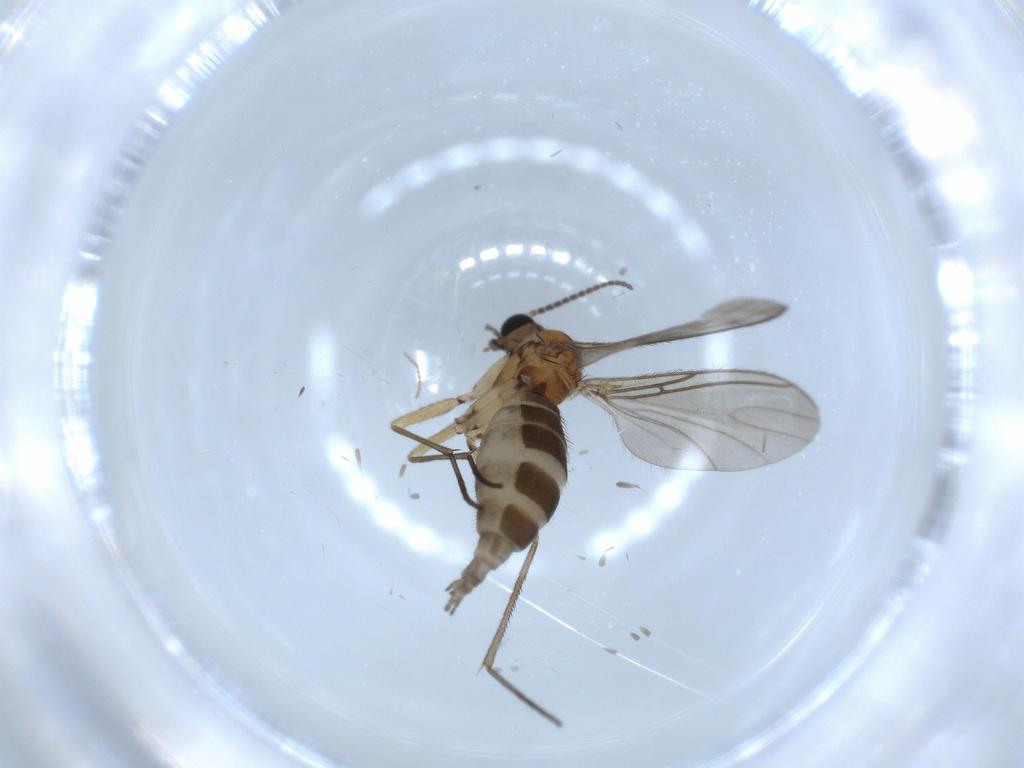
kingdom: Animalia
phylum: Arthropoda
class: Insecta
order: Diptera
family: Sciaridae
